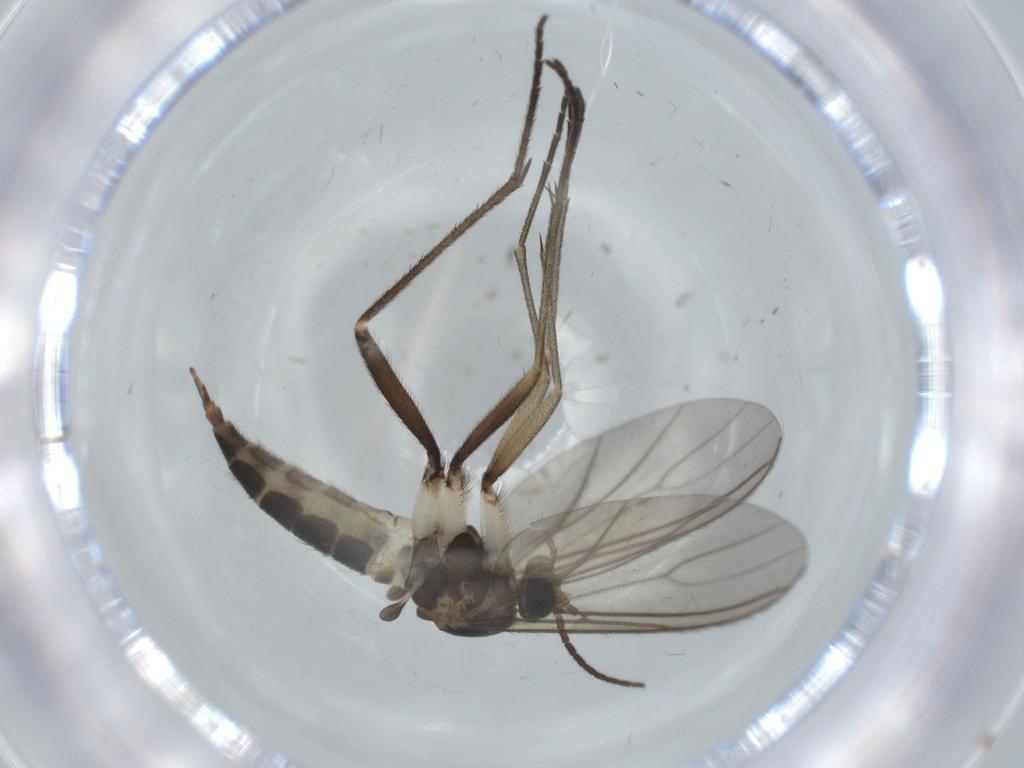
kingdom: Animalia
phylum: Arthropoda
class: Insecta
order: Diptera
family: Sciaridae
